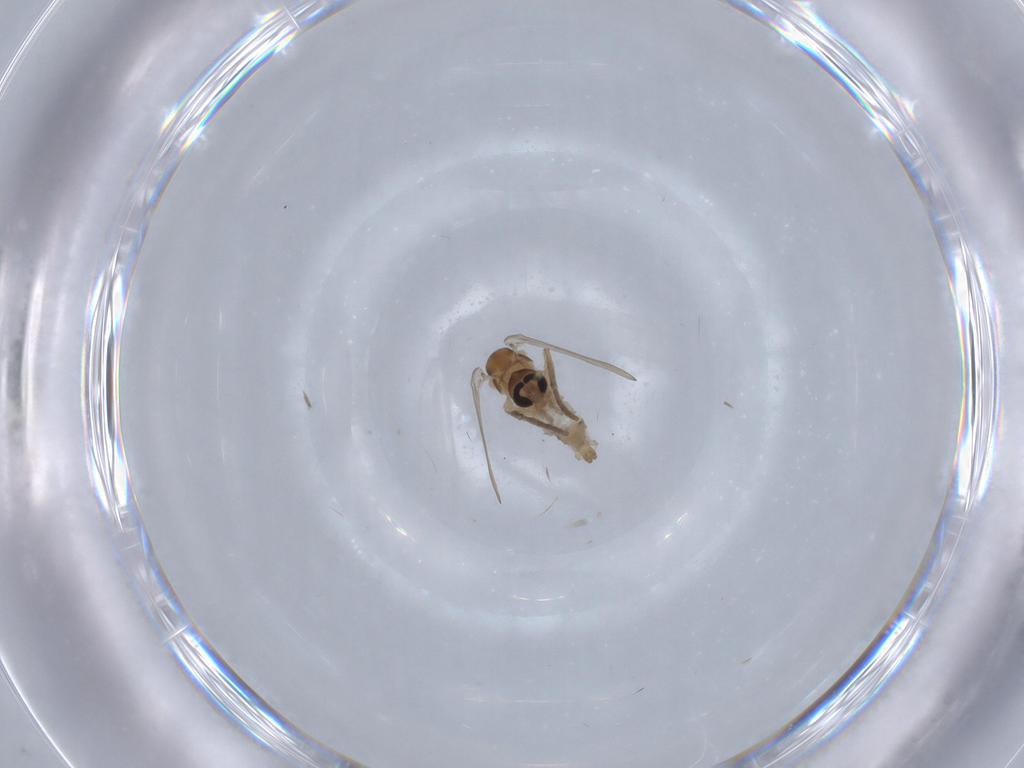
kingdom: Animalia
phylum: Arthropoda
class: Insecta
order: Diptera
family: Psychodidae
